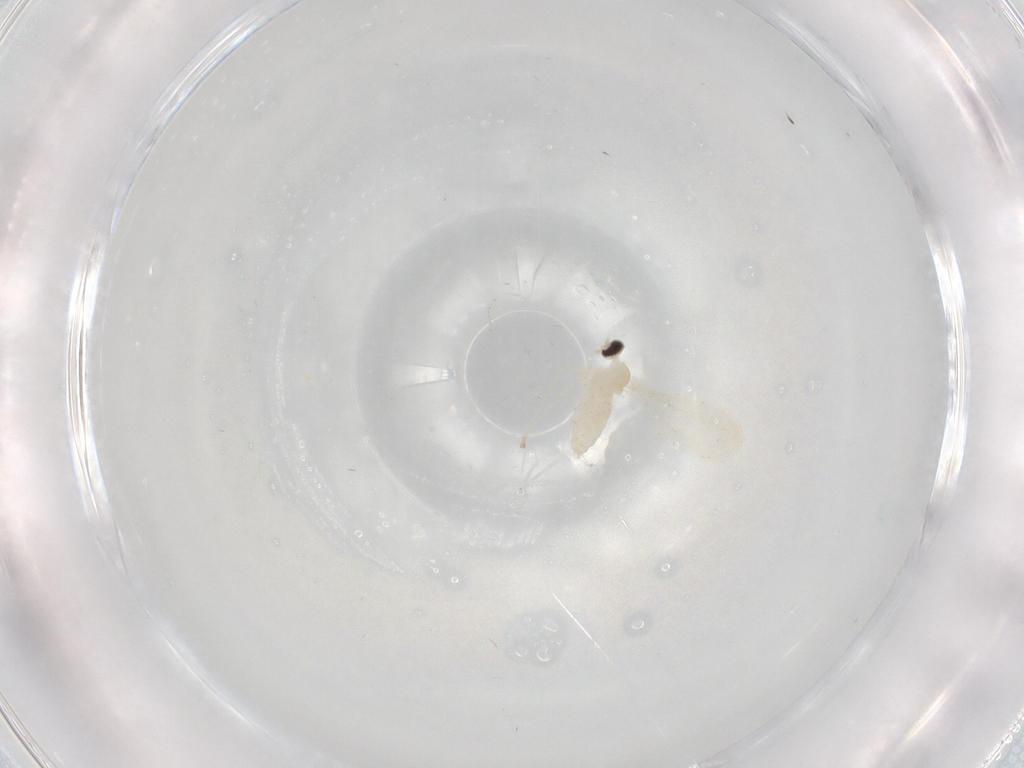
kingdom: Animalia
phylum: Arthropoda
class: Insecta
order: Diptera
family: Cecidomyiidae
